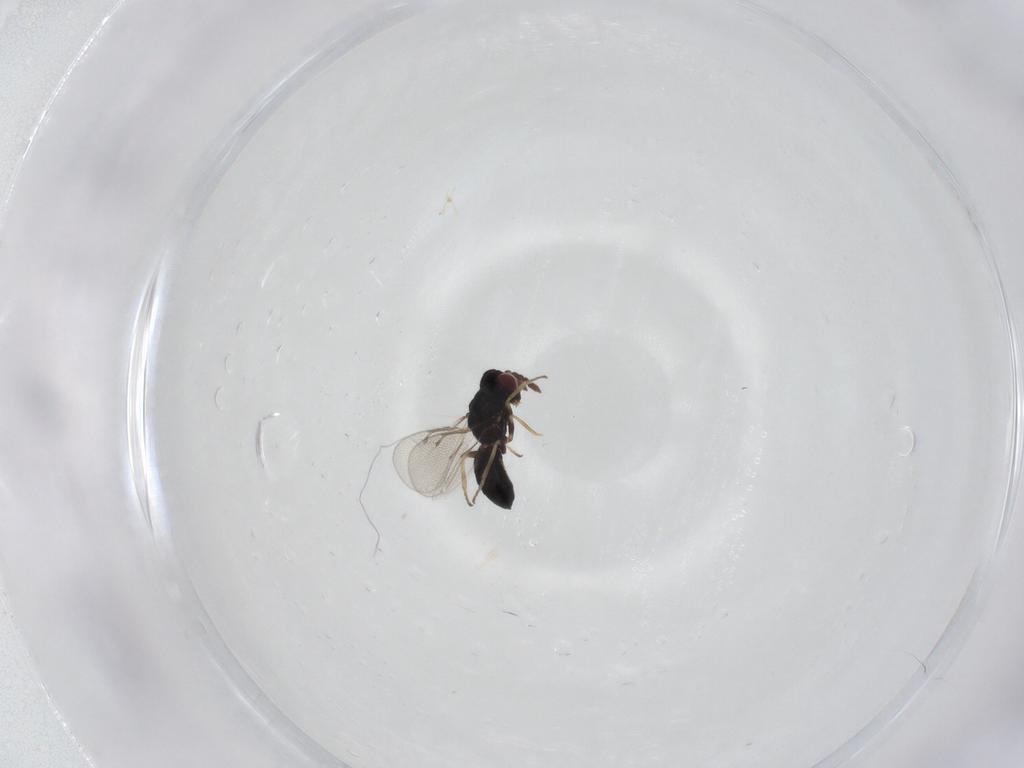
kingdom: Animalia
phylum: Arthropoda
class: Insecta
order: Hymenoptera
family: Eulophidae
